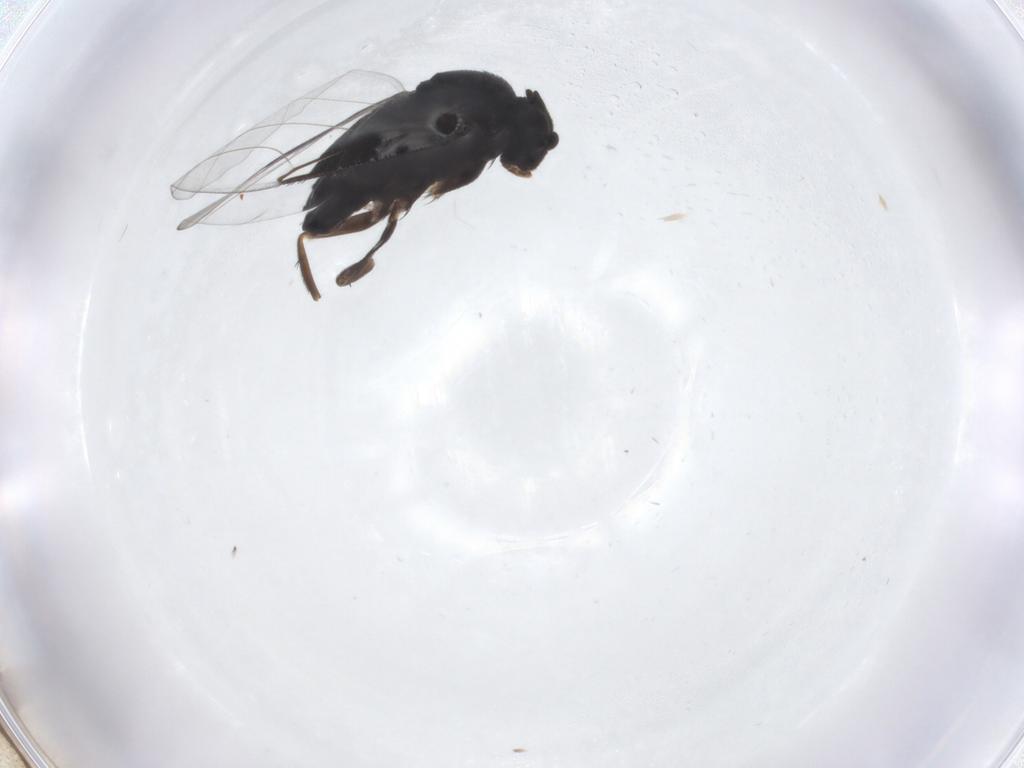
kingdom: Animalia
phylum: Arthropoda
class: Insecta
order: Diptera
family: Phoridae
